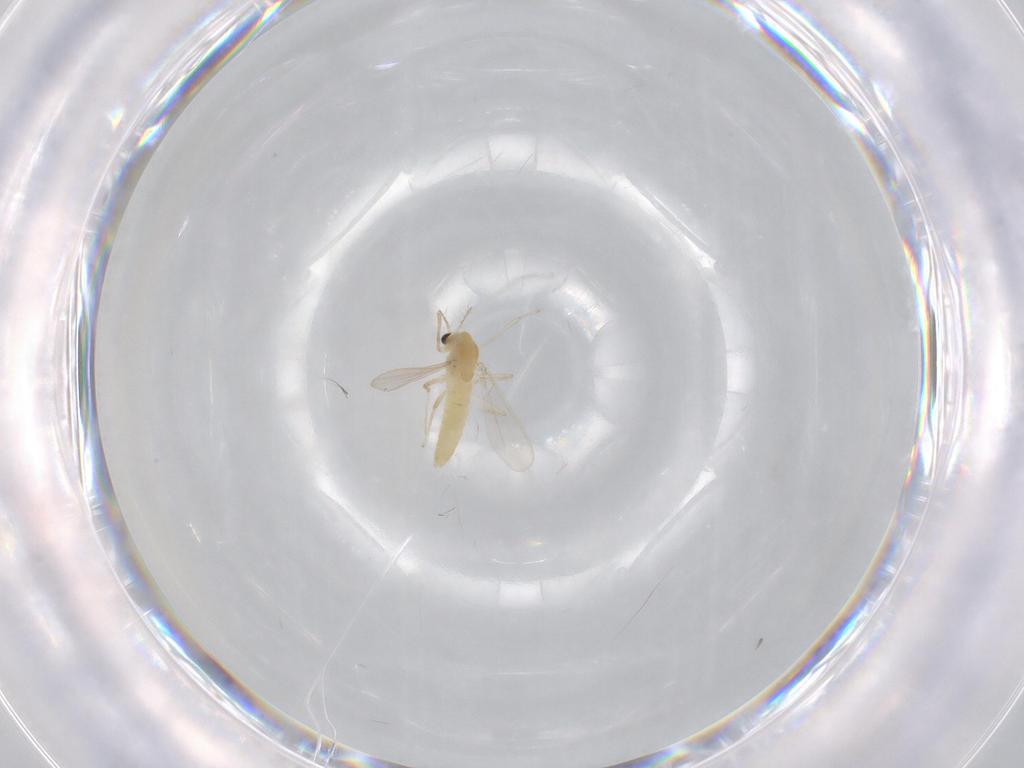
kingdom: Animalia
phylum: Arthropoda
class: Insecta
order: Diptera
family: Chironomidae
